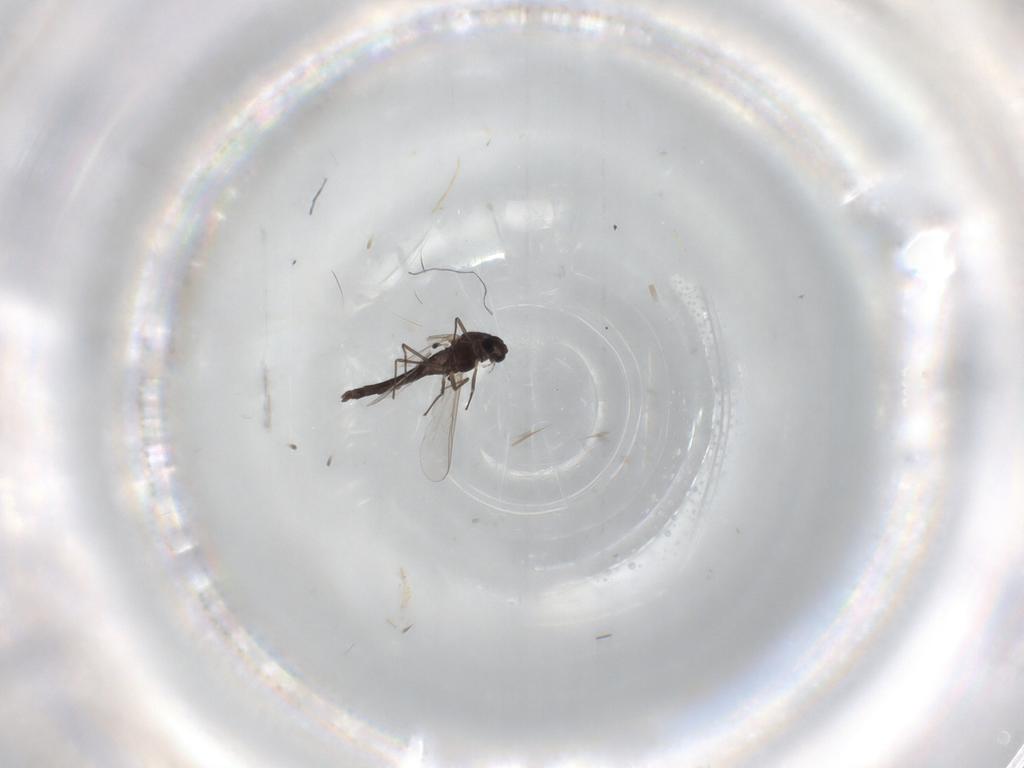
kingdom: Animalia
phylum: Arthropoda
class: Insecta
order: Diptera
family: Chironomidae
